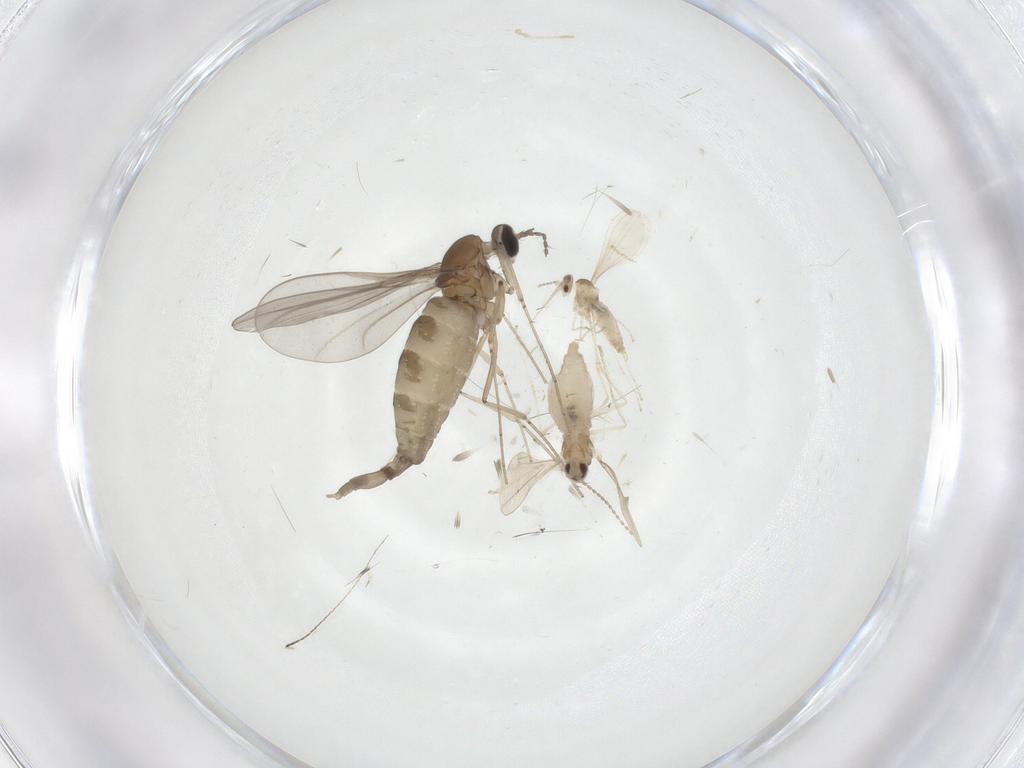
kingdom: Animalia
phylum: Arthropoda
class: Insecta
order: Diptera
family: Cecidomyiidae
